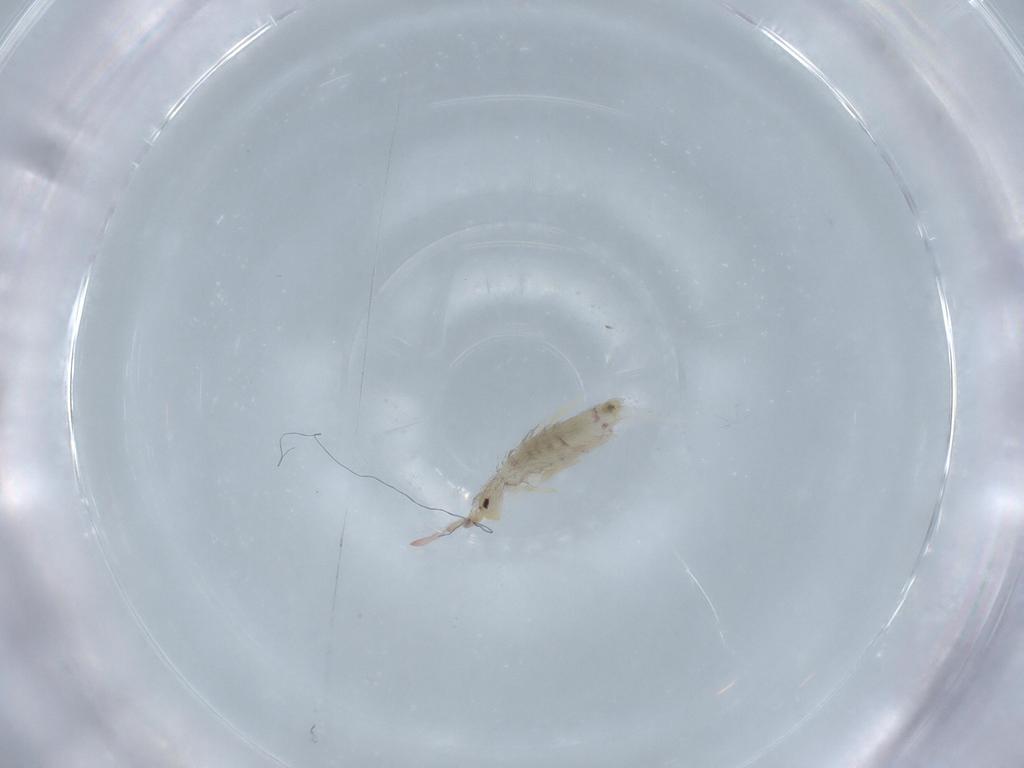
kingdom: Animalia
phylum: Arthropoda
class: Collembola
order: Entomobryomorpha
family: Entomobryidae
